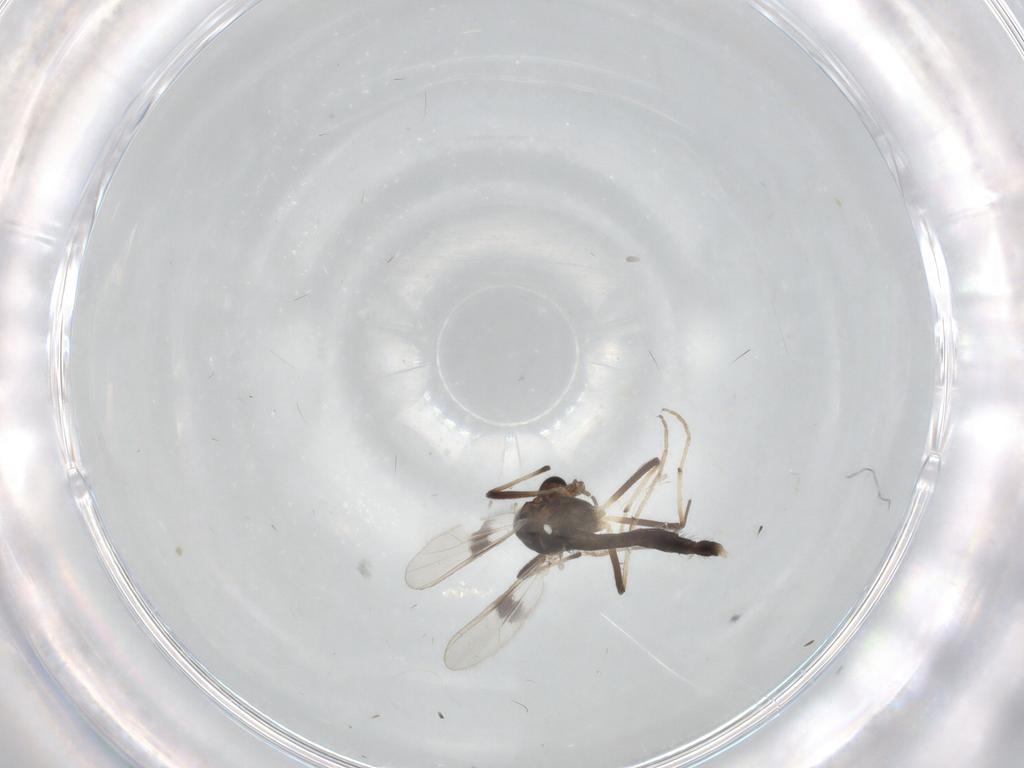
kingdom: Animalia
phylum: Arthropoda
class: Insecta
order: Diptera
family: Chironomidae
